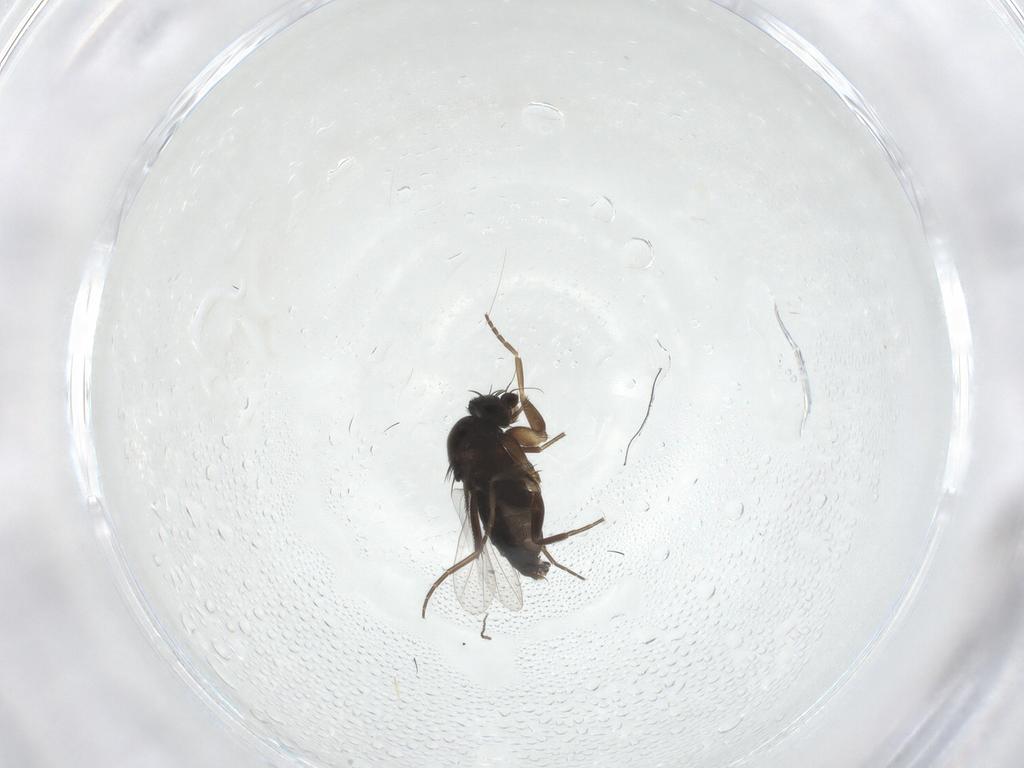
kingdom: Animalia
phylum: Arthropoda
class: Insecta
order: Diptera
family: Phoridae
